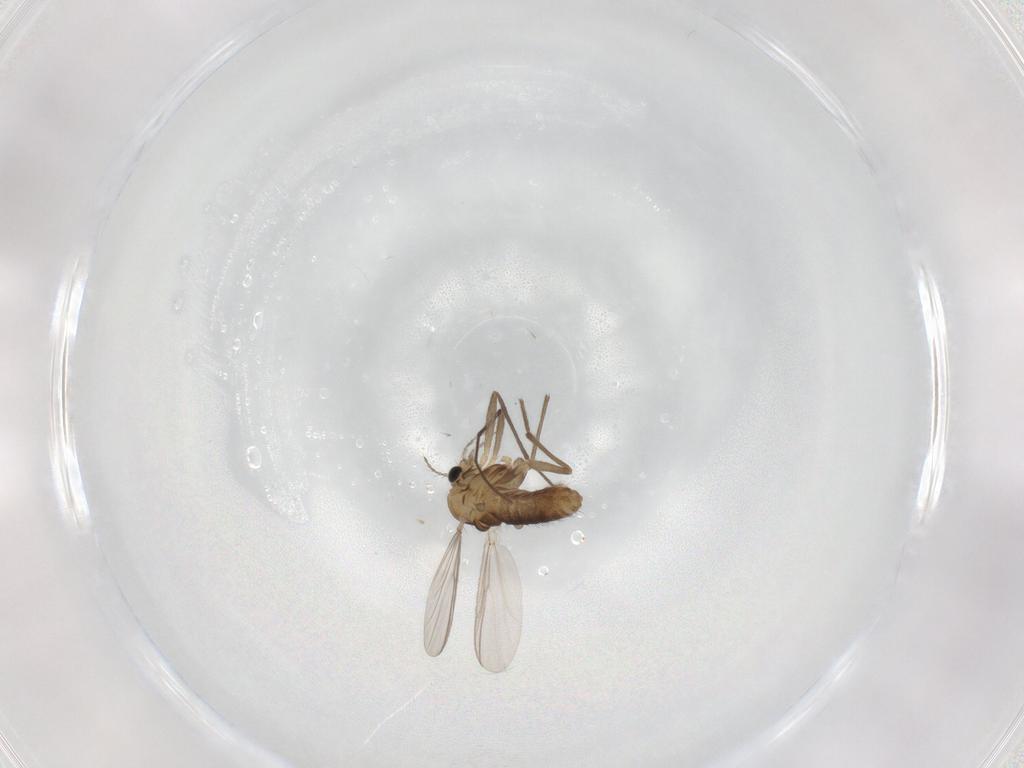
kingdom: Animalia
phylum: Arthropoda
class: Insecta
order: Diptera
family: Chironomidae
